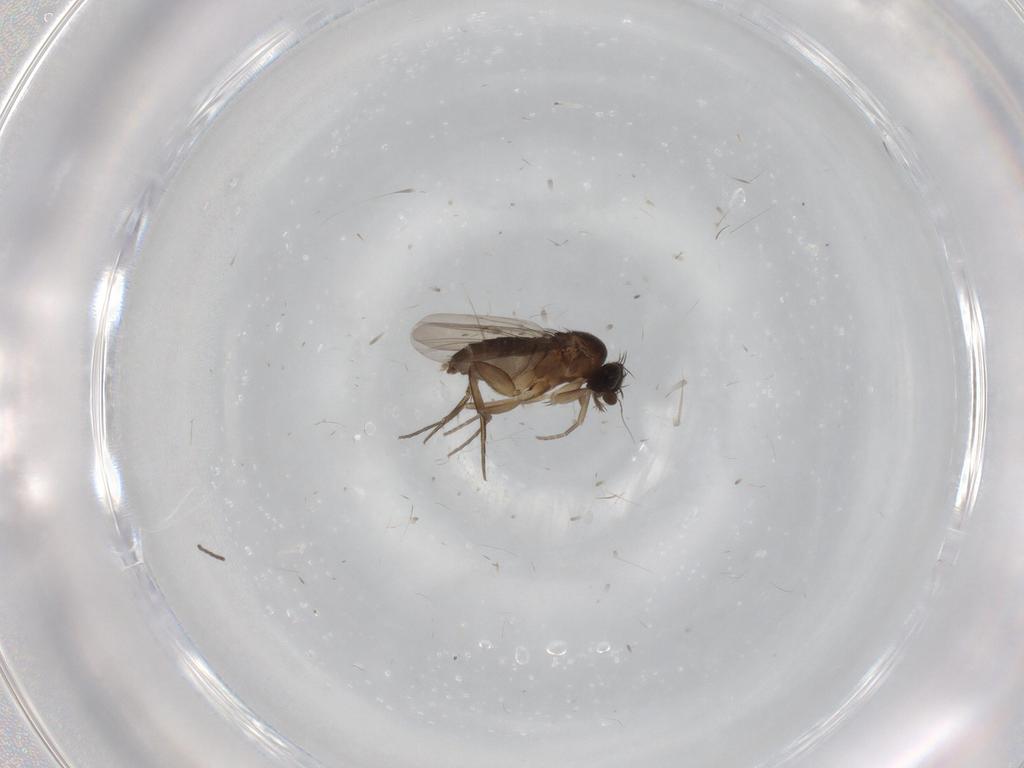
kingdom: Animalia
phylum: Arthropoda
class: Insecta
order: Diptera
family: Phoridae
